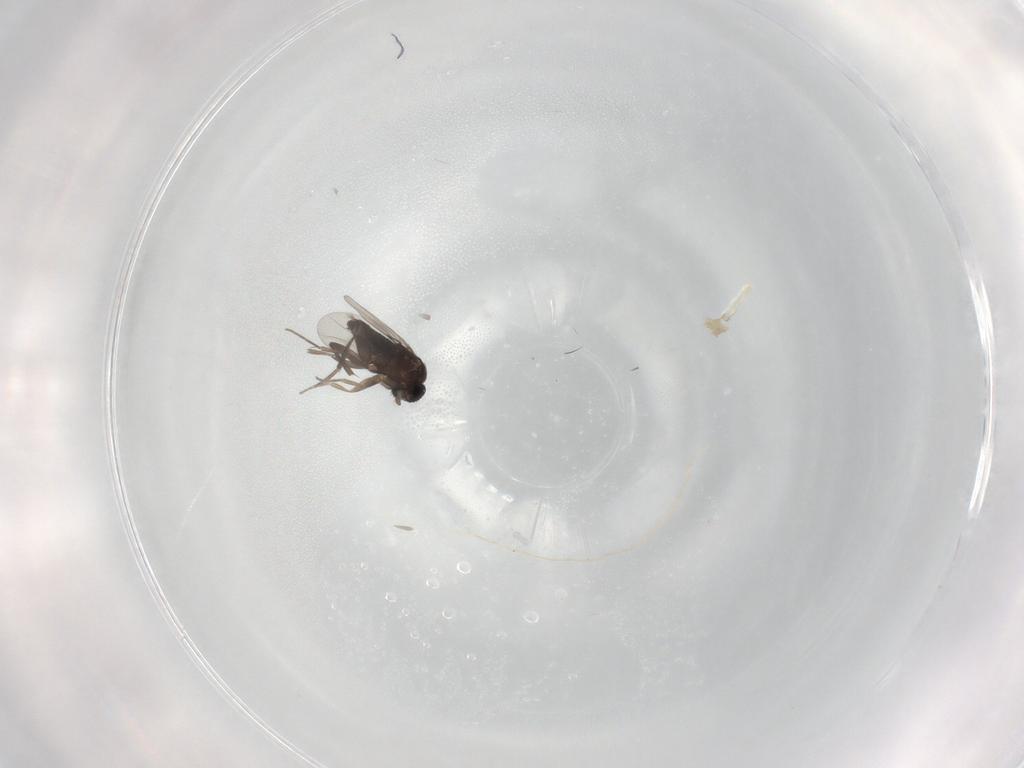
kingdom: Animalia
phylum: Arthropoda
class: Insecta
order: Diptera
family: Phoridae
